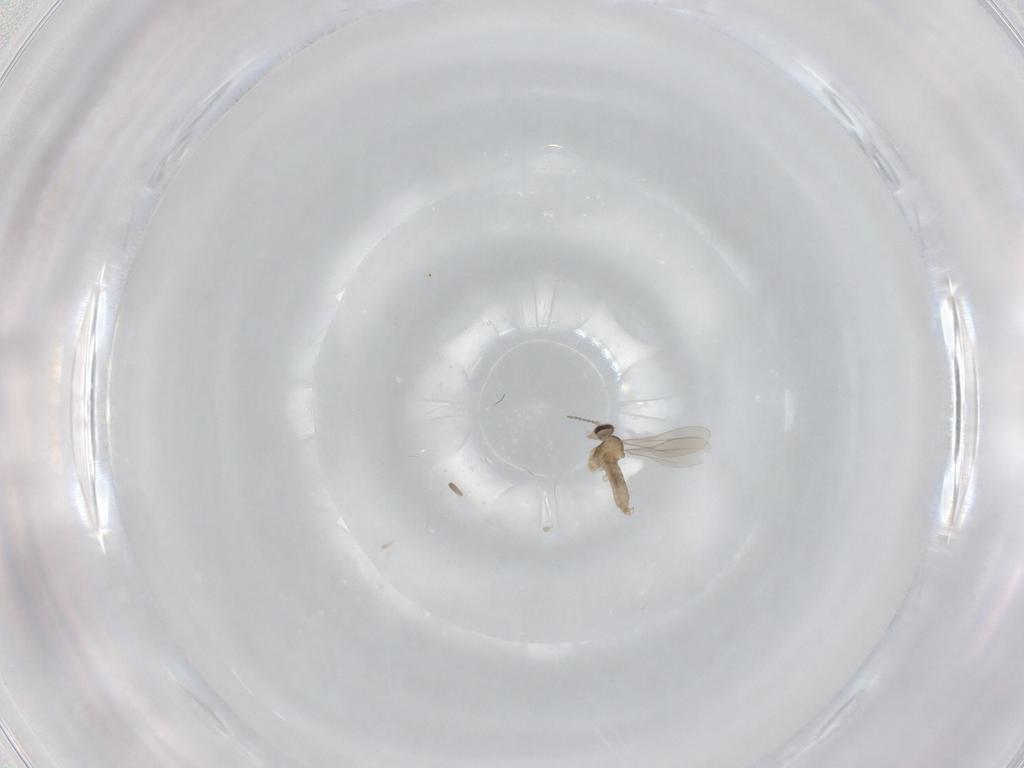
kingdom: Animalia
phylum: Arthropoda
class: Insecta
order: Diptera
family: Cecidomyiidae
